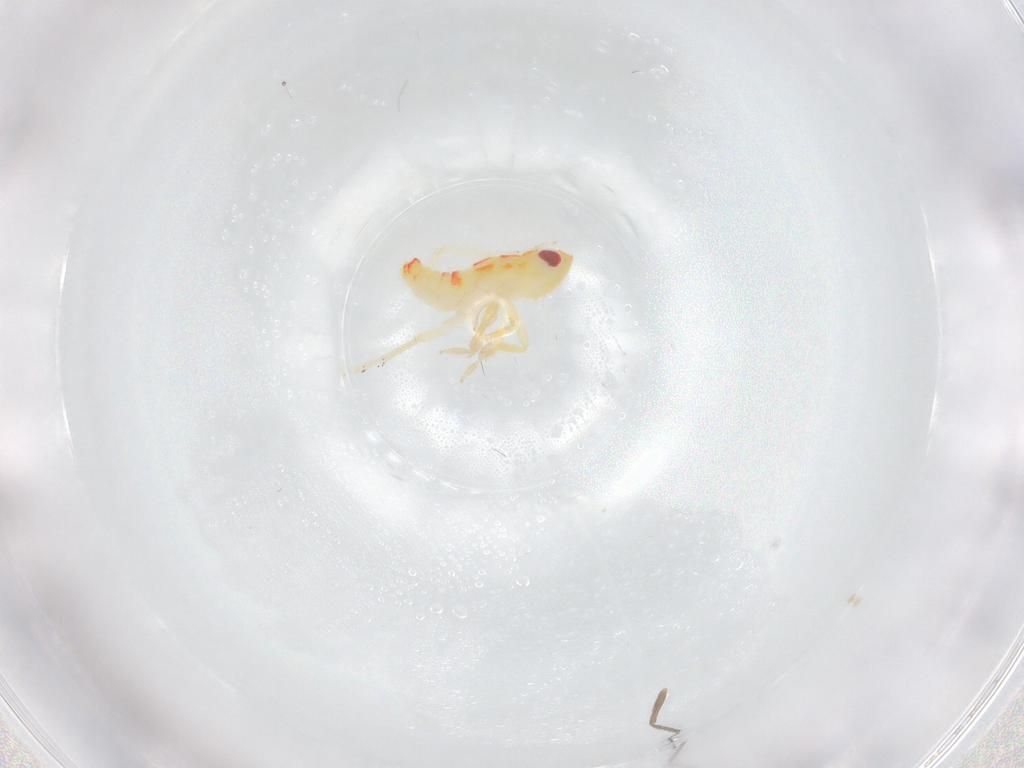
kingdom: Animalia
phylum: Arthropoda
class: Insecta
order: Hemiptera
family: Tropiduchidae
